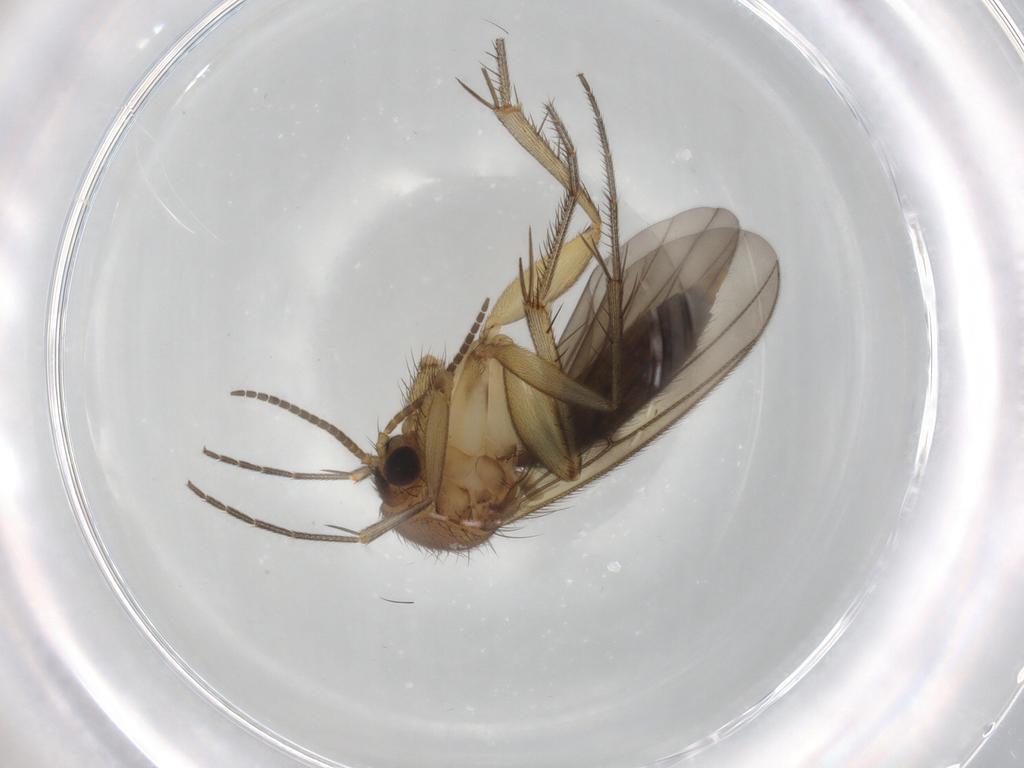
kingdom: Animalia
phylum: Arthropoda
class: Insecta
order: Diptera
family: Mycetophilidae
